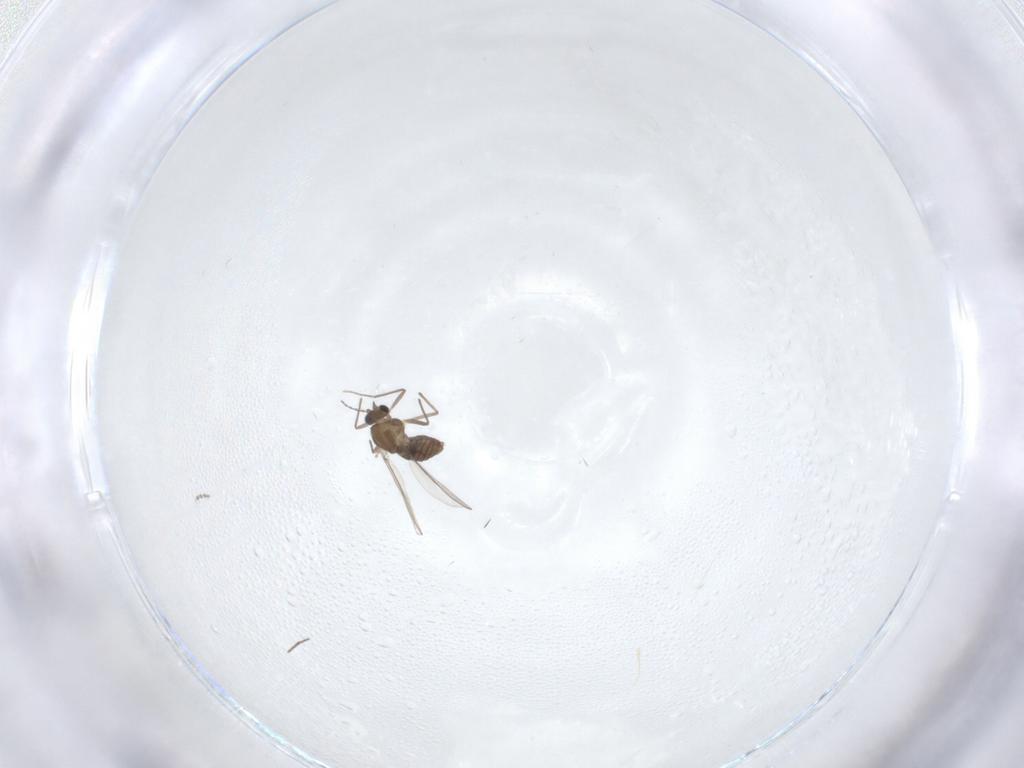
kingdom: Animalia
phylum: Arthropoda
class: Insecta
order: Diptera
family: Cecidomyiidae
